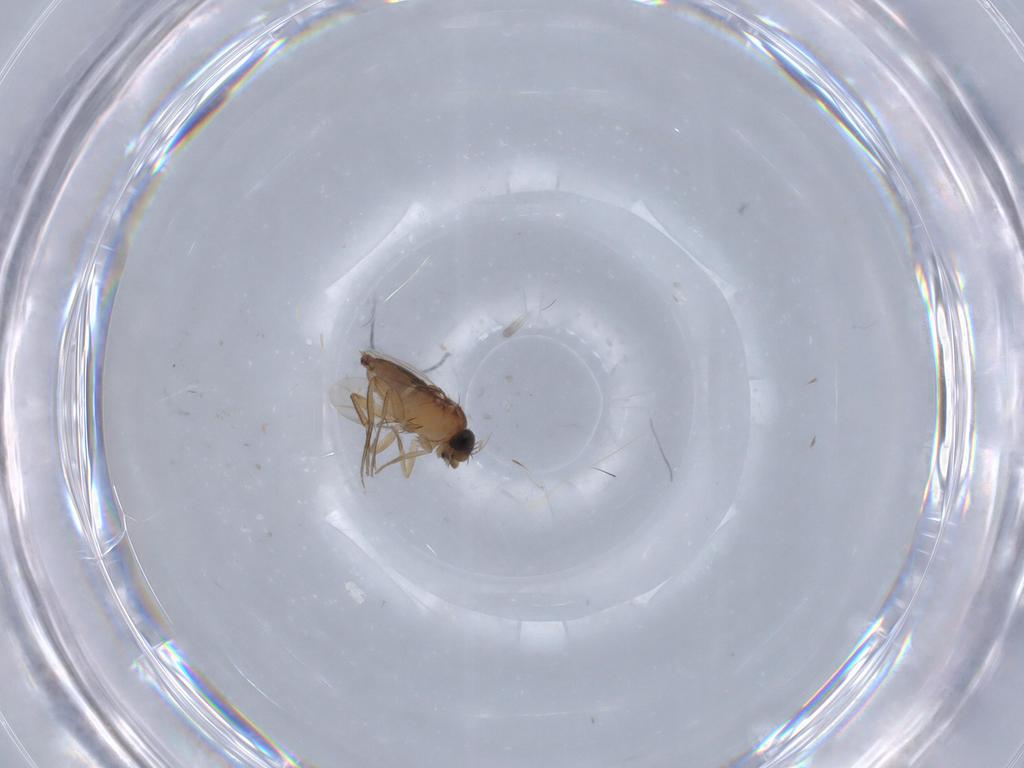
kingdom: Animalia
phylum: Arthropoda
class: Insecta
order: Diptera
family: Phoridae
